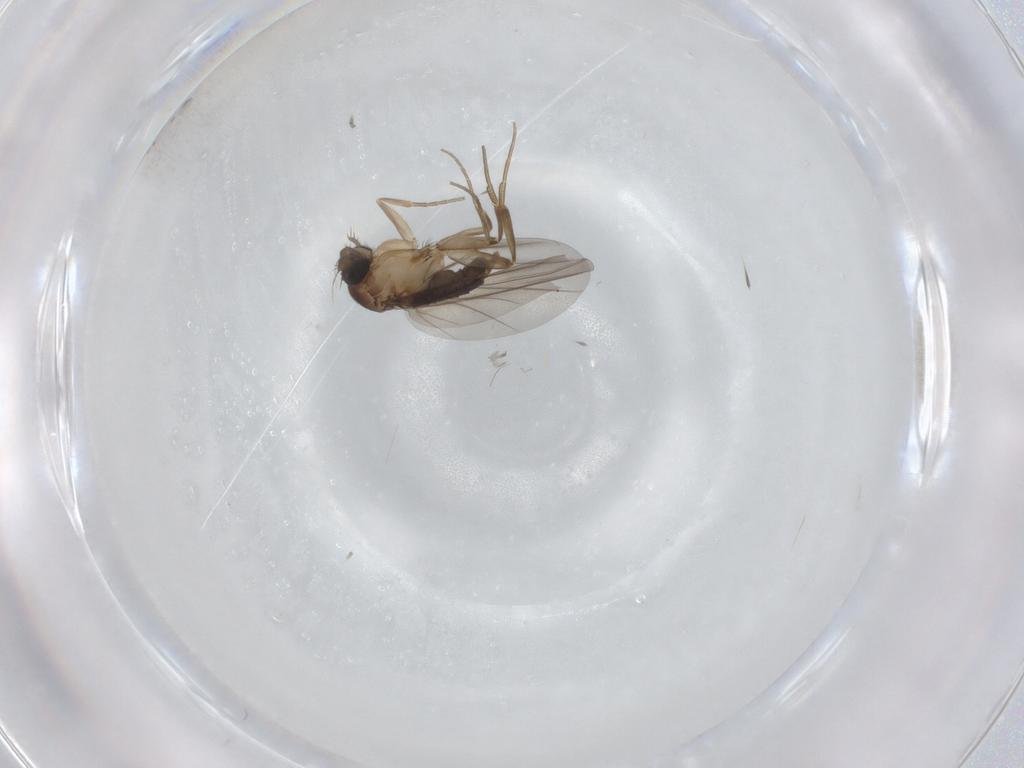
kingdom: Animalia
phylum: Arthropoda
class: Insecta
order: Diptera
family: Phoridae
